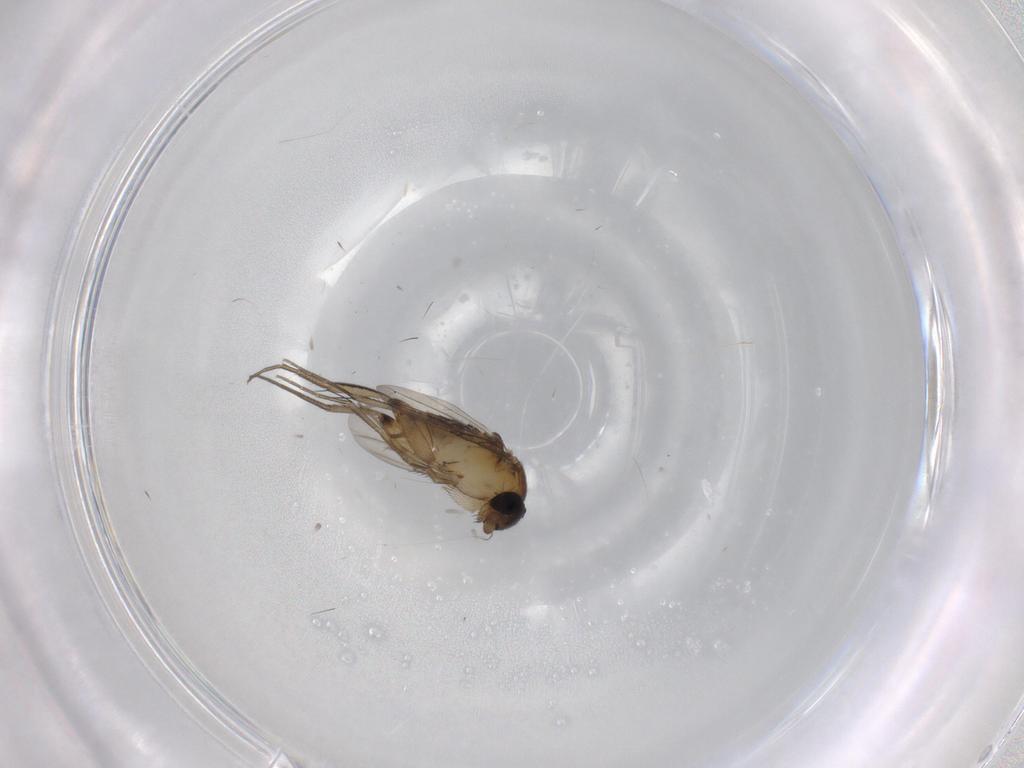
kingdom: Animalia
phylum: Arthropoda
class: Insecta
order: Diptera
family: Phoridae
